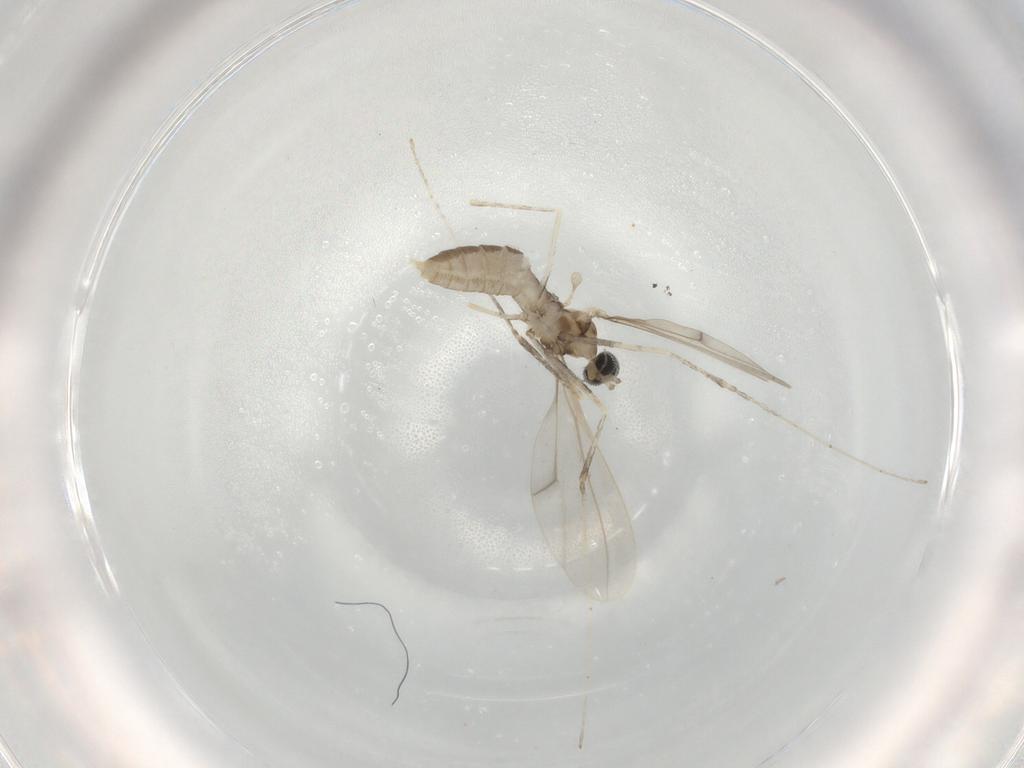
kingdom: Animalia
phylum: Arthropoda
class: Insecta
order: Diptera
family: Cecidomyiidae
